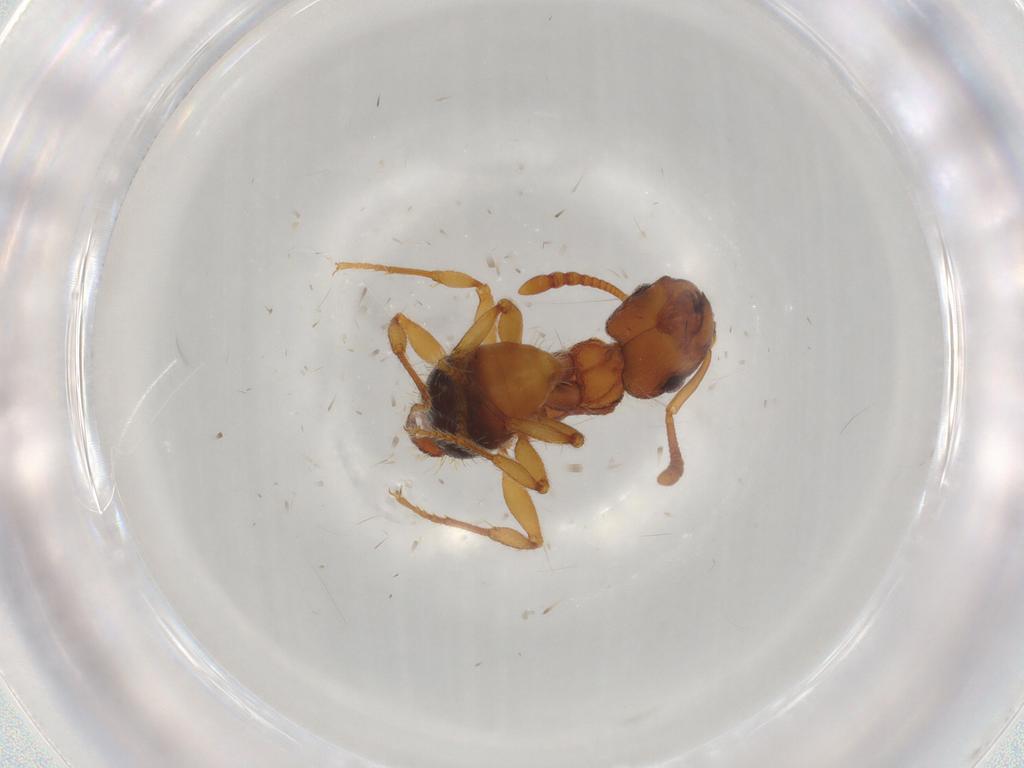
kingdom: Animalia
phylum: Arthropoda
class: Insecta
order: Hymenoptera
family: Formicidae
